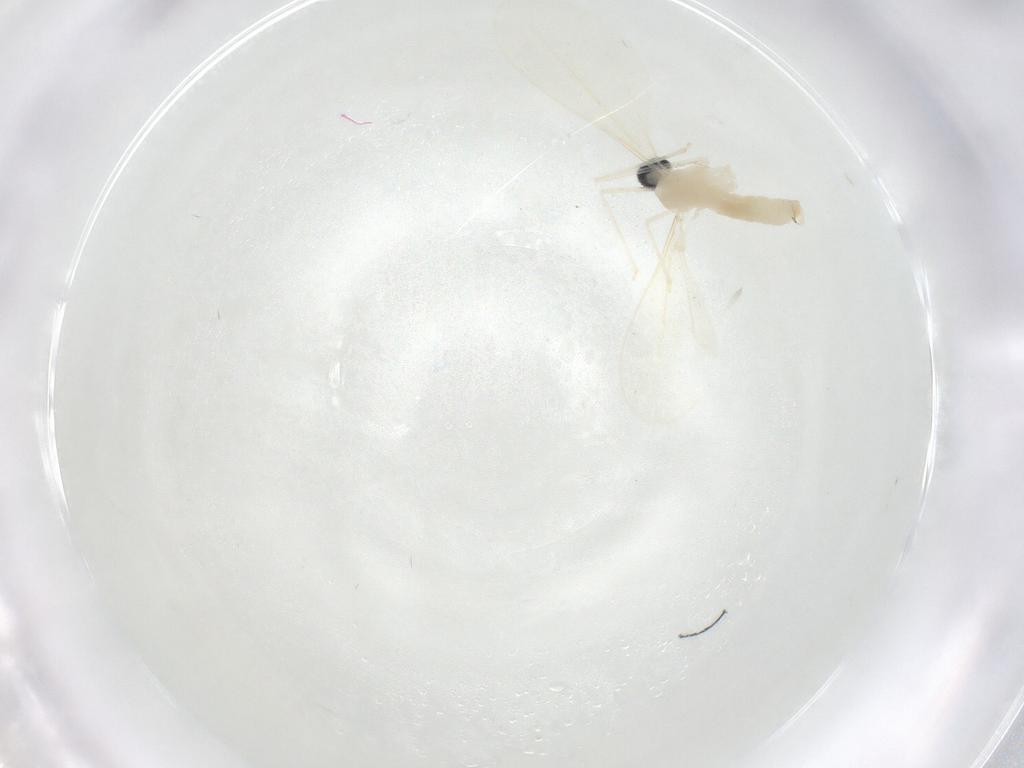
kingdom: Animalia
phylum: Arthropoda
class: Insecta
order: Diptera
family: Cecidomyiidae
